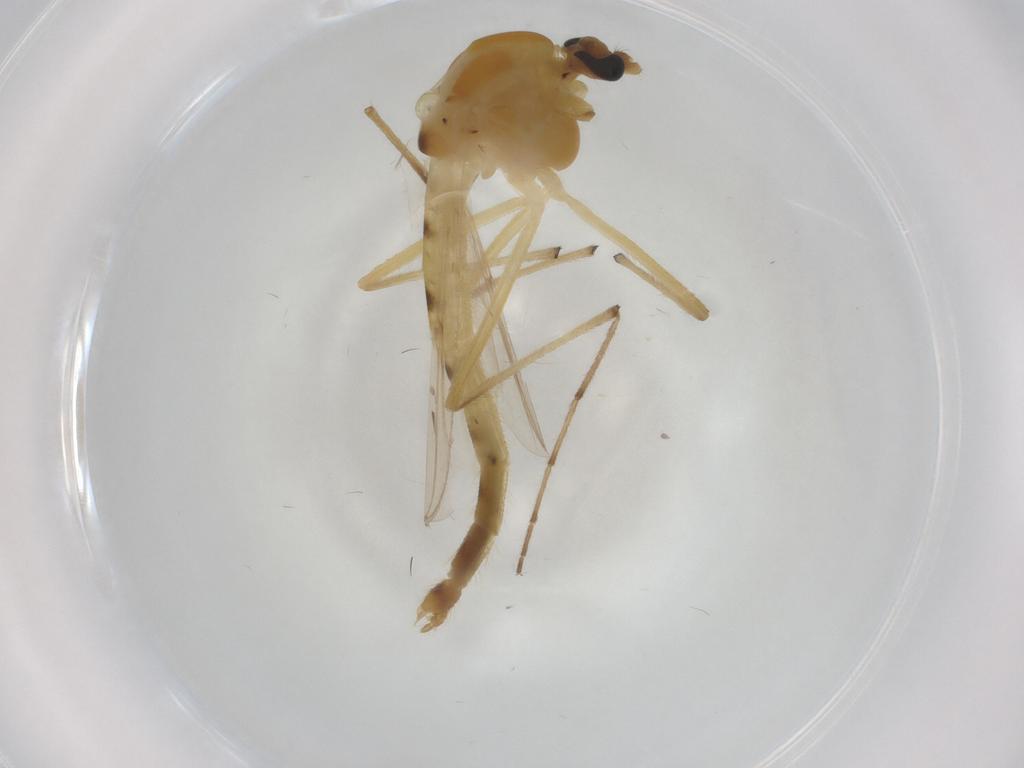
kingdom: Animalia
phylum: Arthropoda
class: Insecta
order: Diptera
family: Chironomidae
